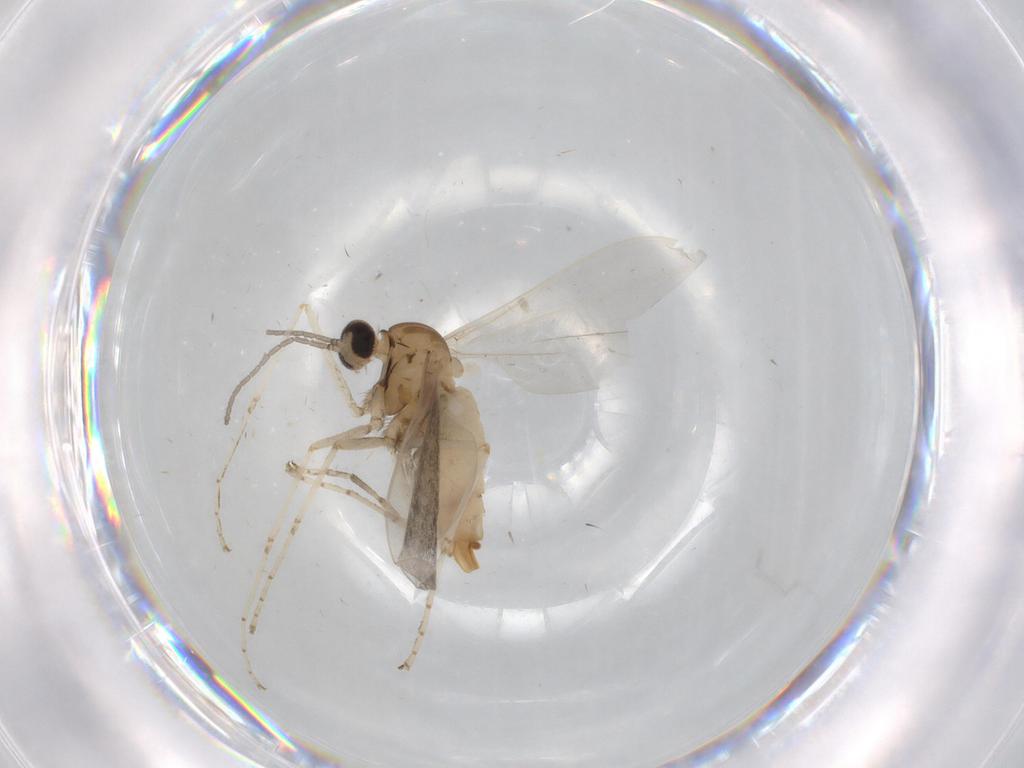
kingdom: Animalia
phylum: Arthropoda
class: Insecta
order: Diptera
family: Cecidomyiidae
